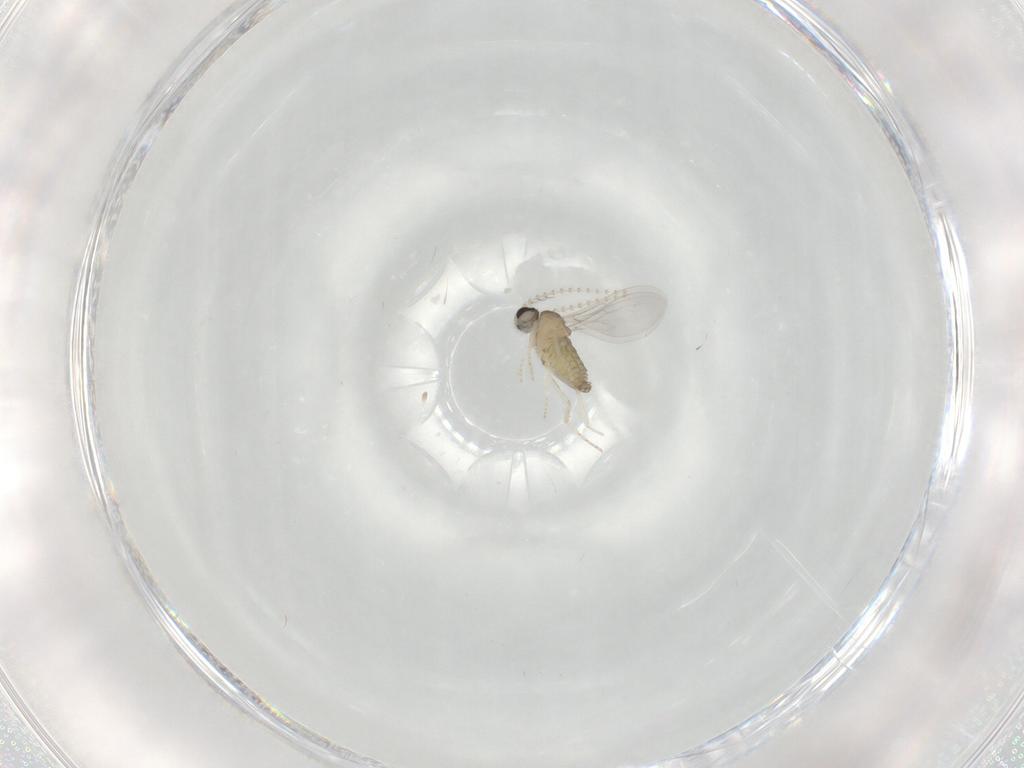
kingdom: Animalia
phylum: Arthropoda
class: Insecta
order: Diptera
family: Cecidomyiidae
